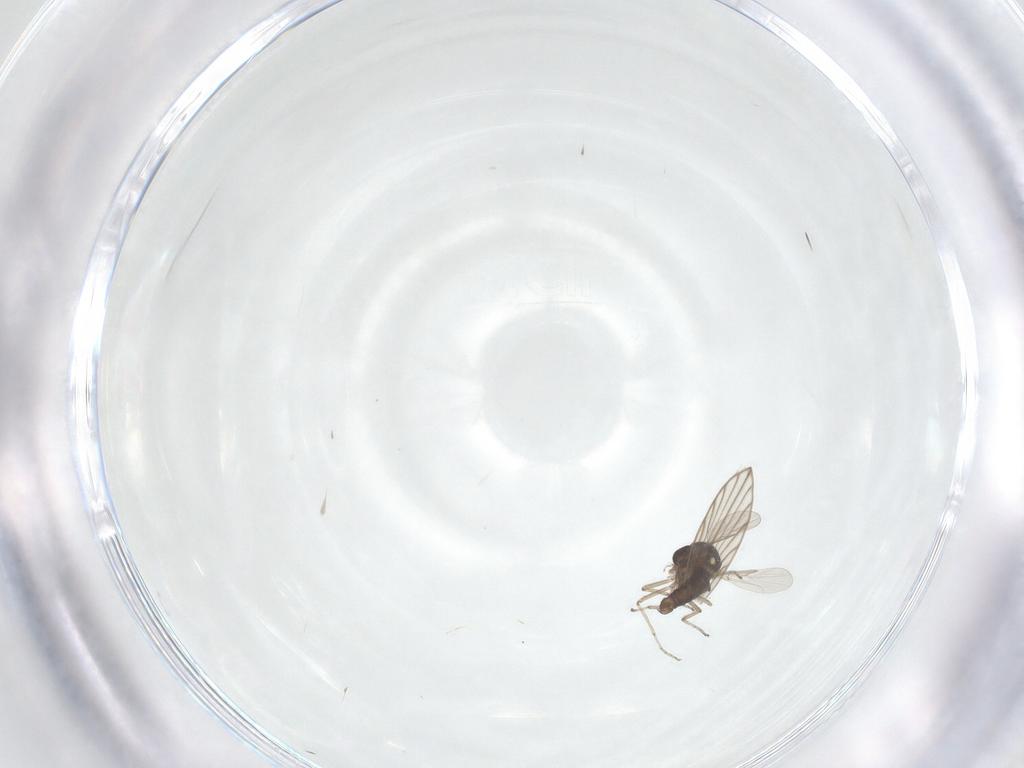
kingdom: Animalia
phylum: Arthropoda
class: Insecta
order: Diptera
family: Ceratopogonidae
